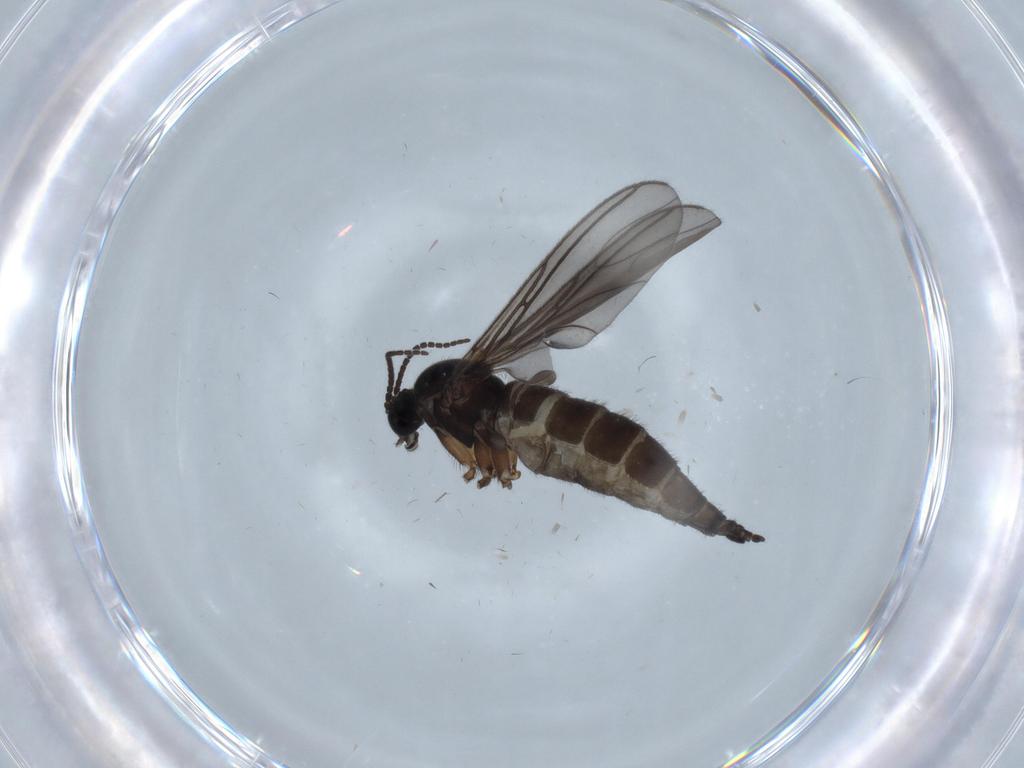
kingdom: Animalia
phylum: Arthropoda
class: Insecta
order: Diptera
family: Sciaridae
